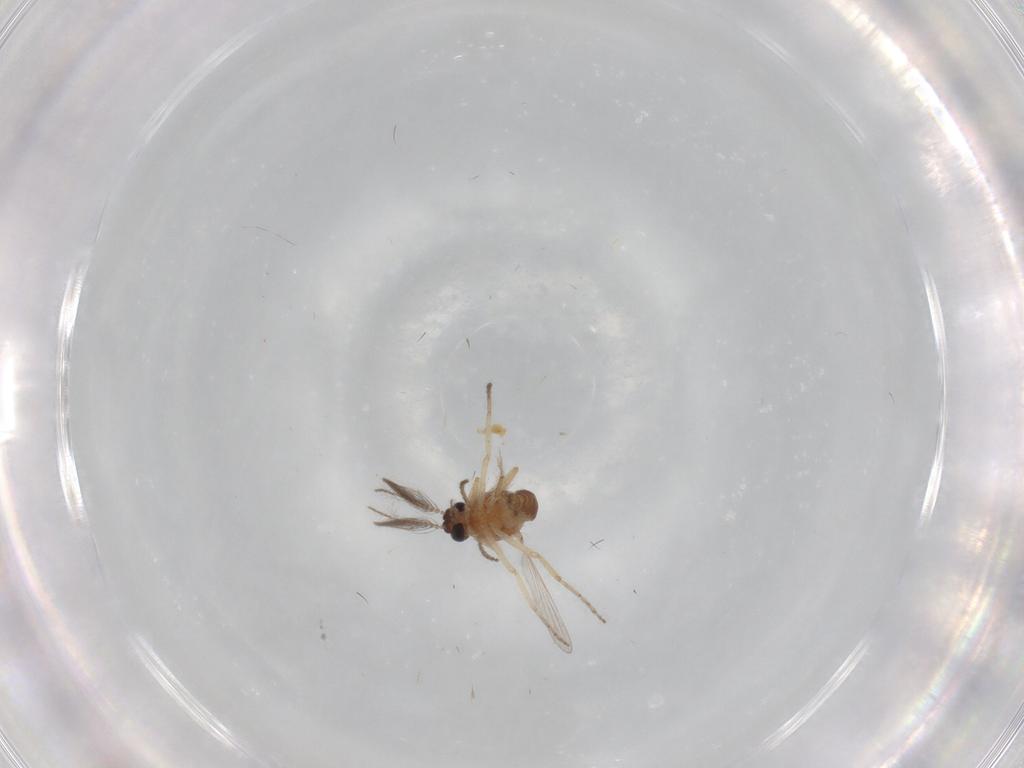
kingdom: Animalia
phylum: Arthropoda
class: Insecta
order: Diptera
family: Ceratopogonidae
